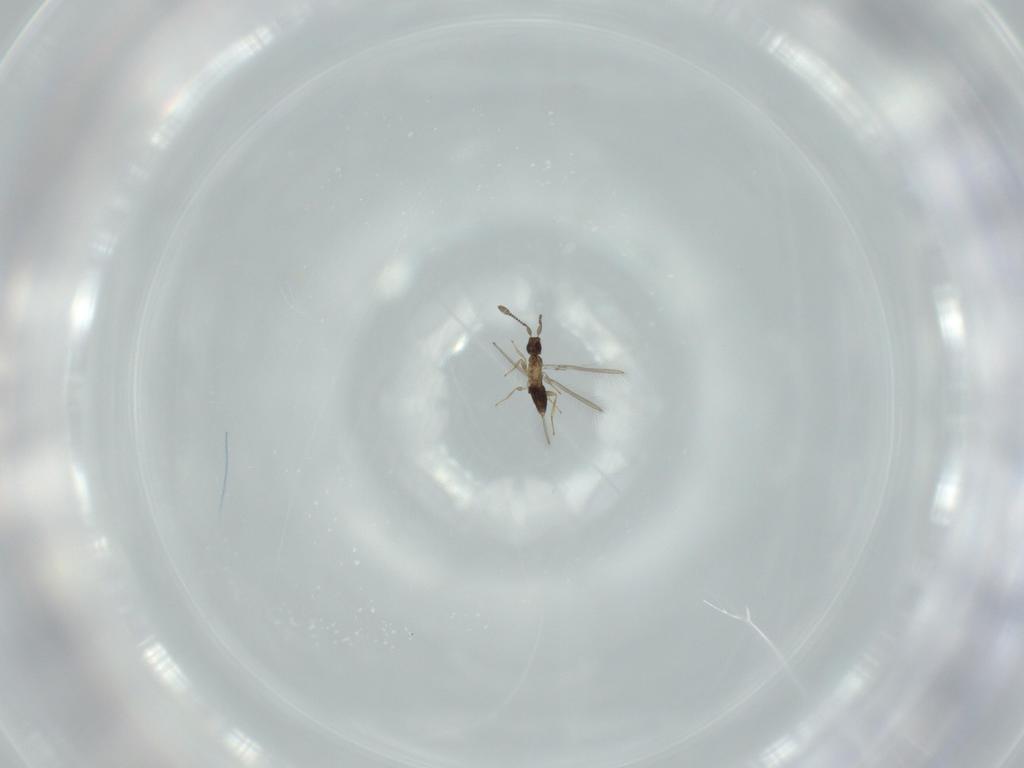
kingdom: Animalia
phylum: Arthropoda
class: Insecta
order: Hymenoptera
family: Mymaridae
